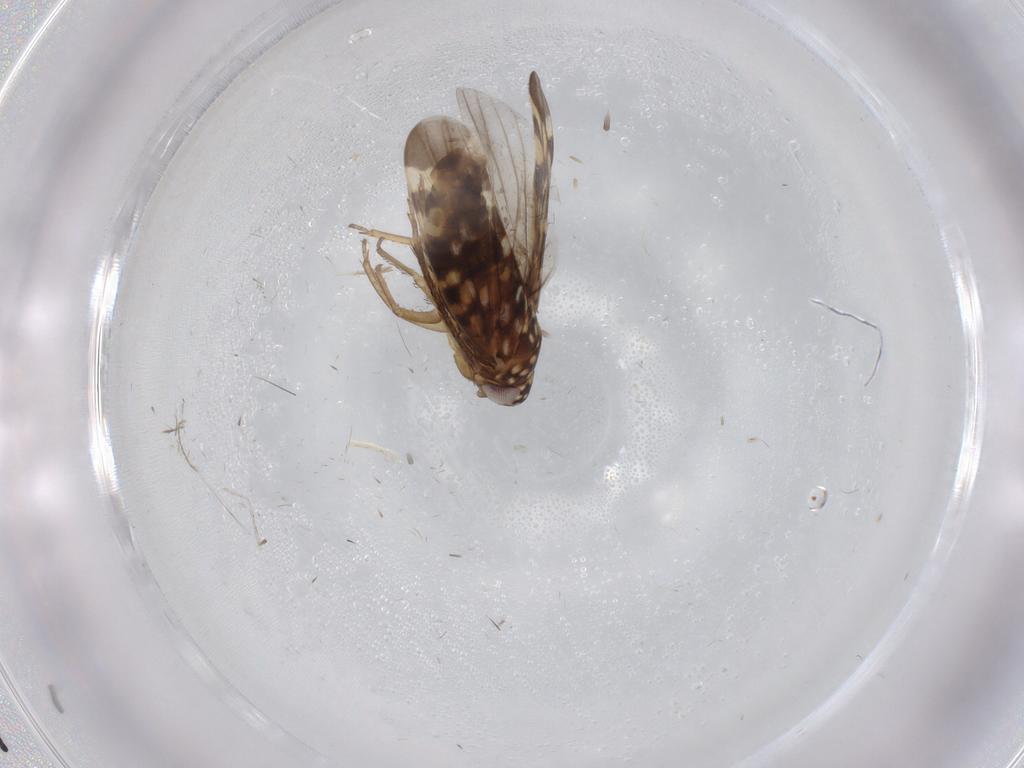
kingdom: Animalia
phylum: Arthropoda
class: Insecta
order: Hemiptera
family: Cicadellidae
